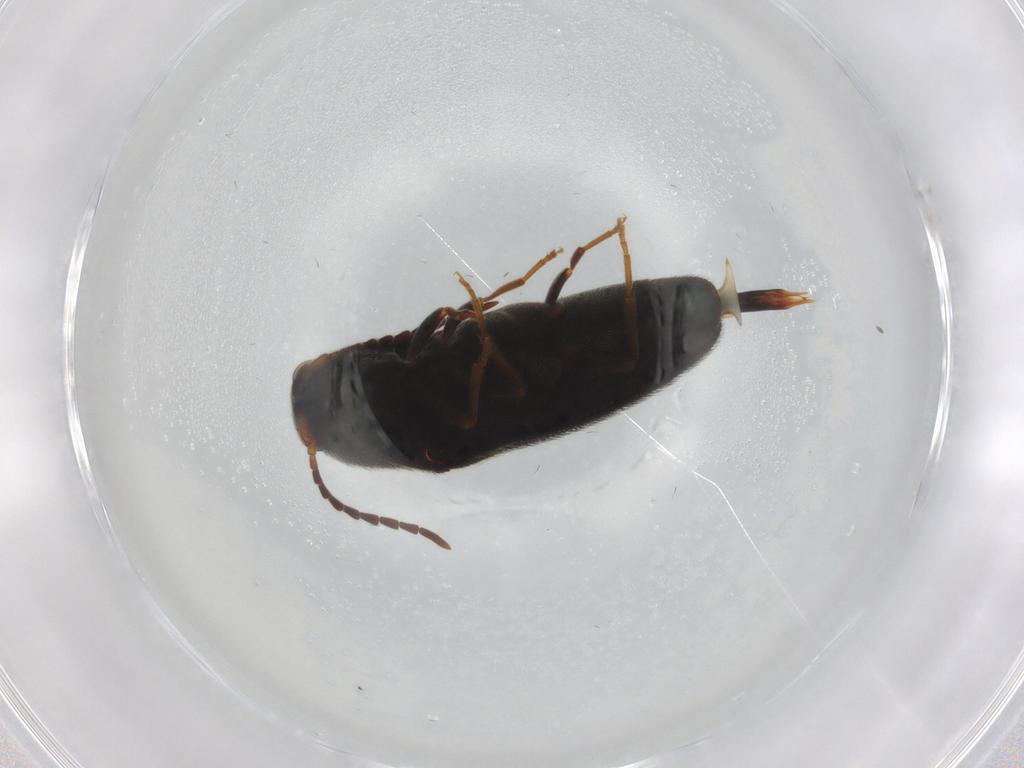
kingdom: Animalia
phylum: Arthropoda
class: Insecta
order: Coleoptera
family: Eucnemidae
